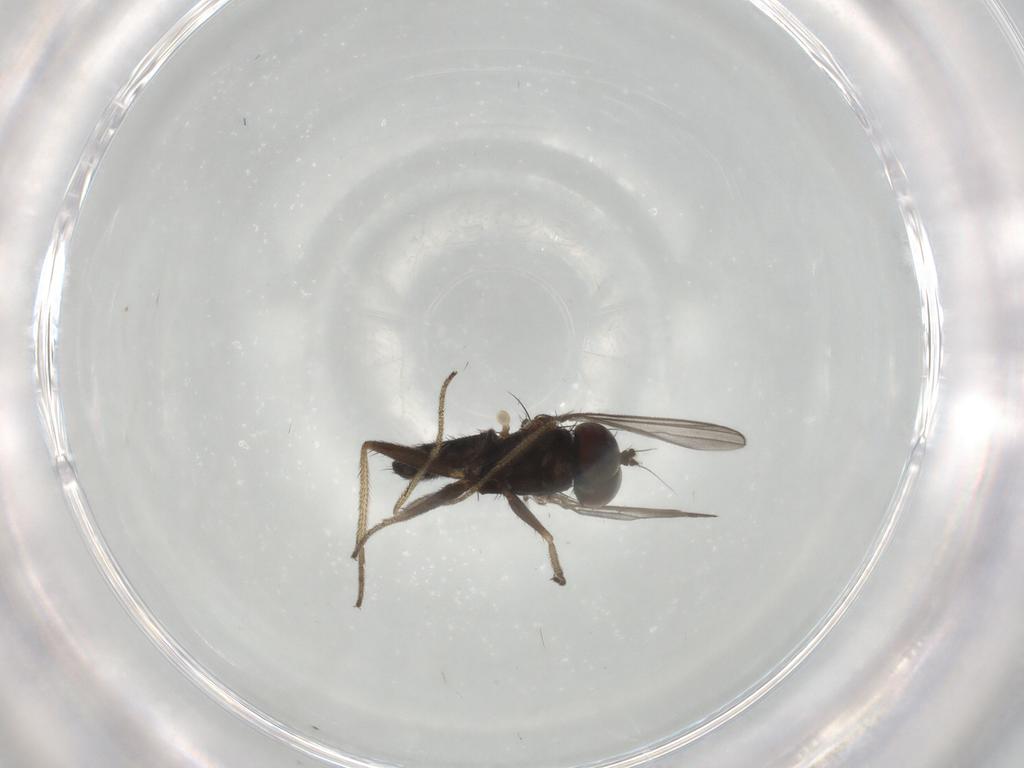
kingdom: Animalia
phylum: Arthropoda
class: Insecta
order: Diptera
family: Dolichopodidae
